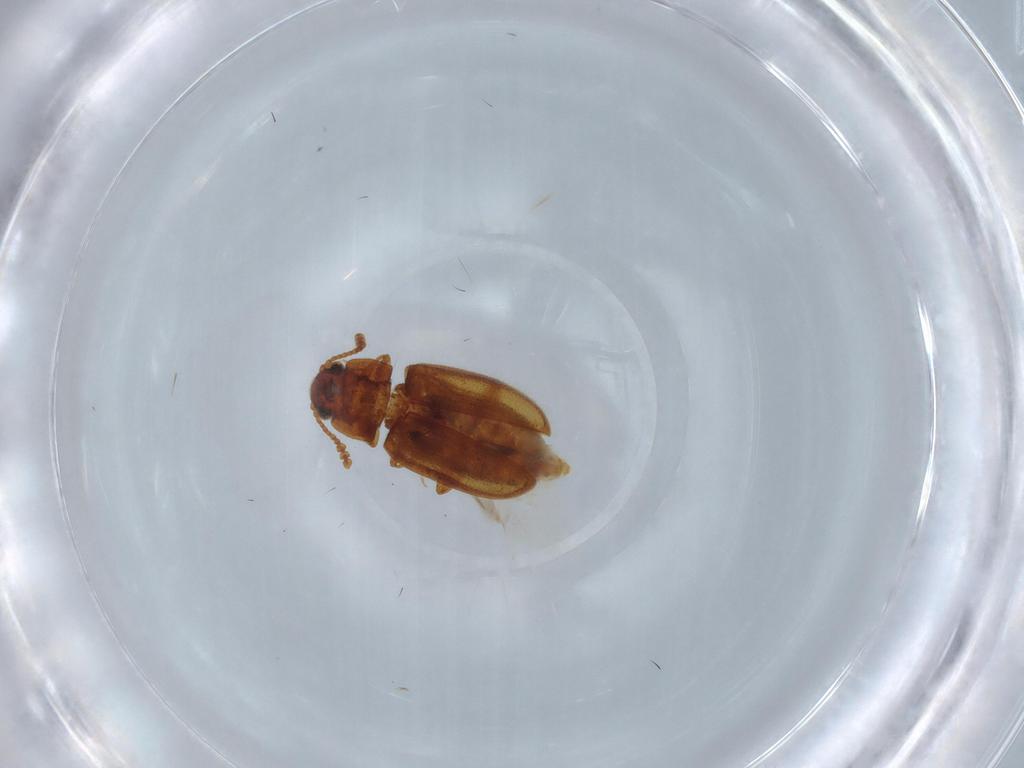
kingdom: Animalia
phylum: Arthropoda
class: Insecta
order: Coleoptera
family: Erotylidae
